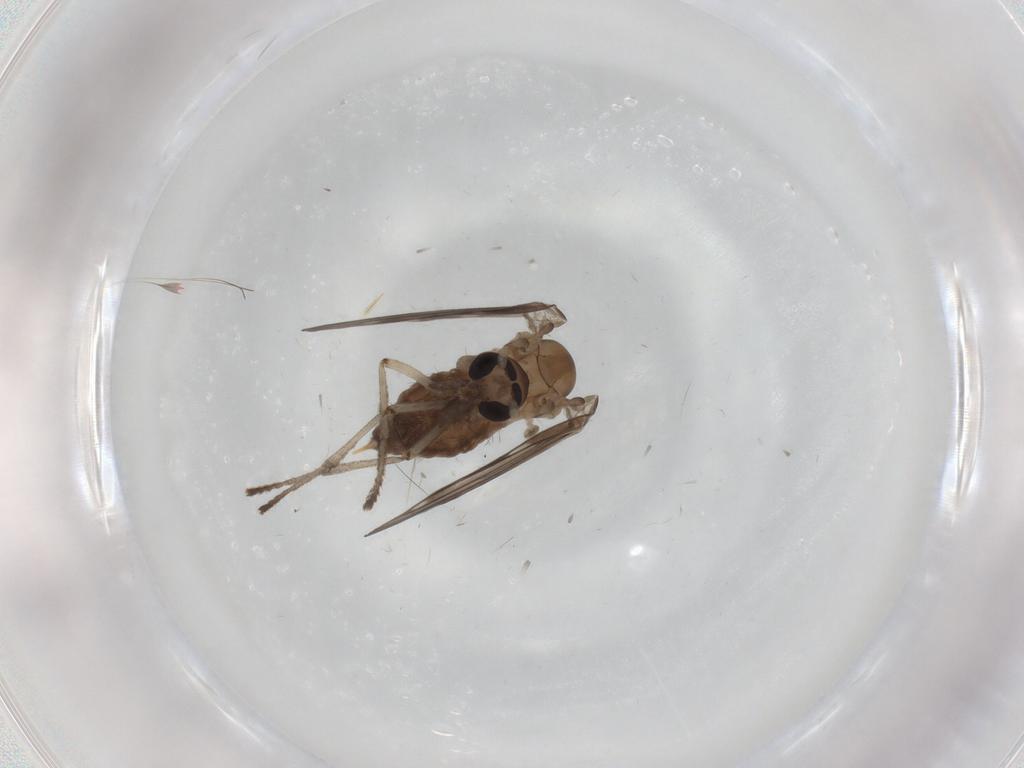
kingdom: Animalia
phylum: Arthropoda
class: Insecta
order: Diptera
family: Psychodidae
